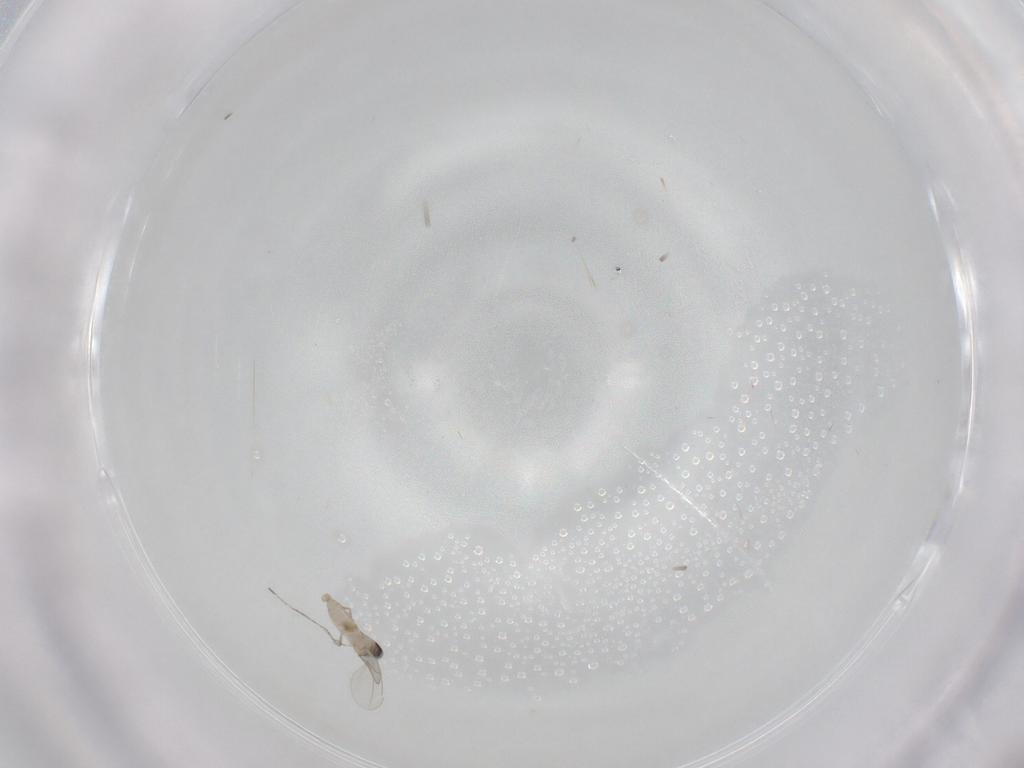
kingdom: Animalia
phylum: Arthropoda
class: Insecta
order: Diptera
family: Cecidomyiidae
